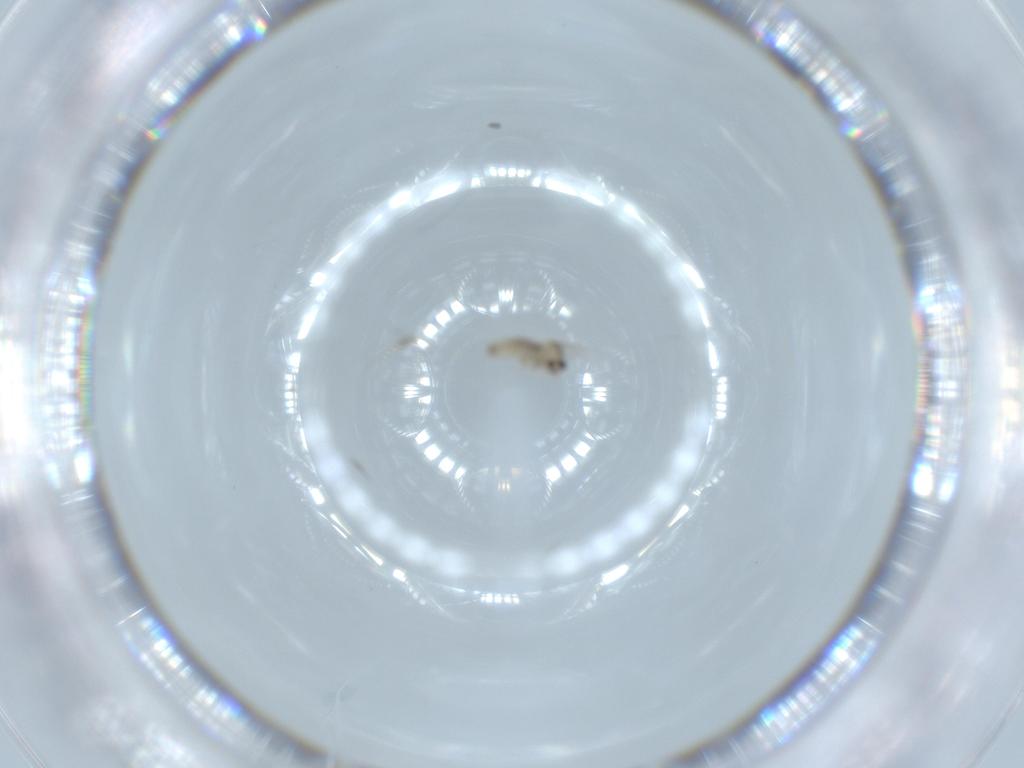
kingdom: Animalia
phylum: Arthropoda
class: Insecta
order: Diptera
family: Cecidomyiidae
